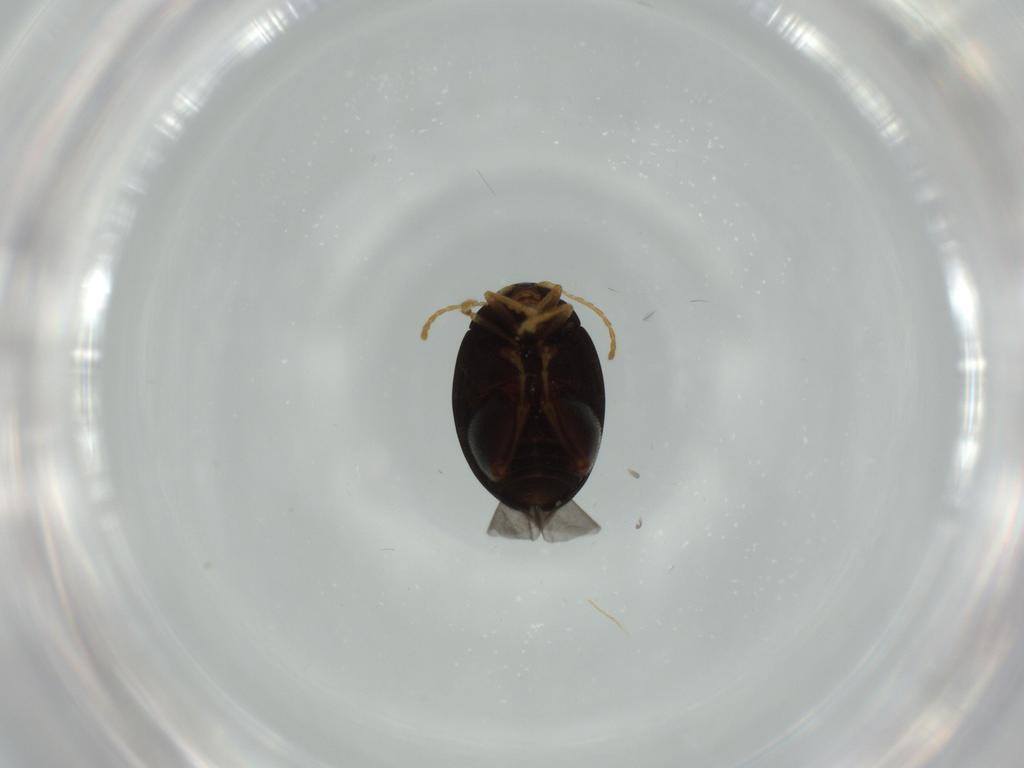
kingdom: Animalia
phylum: Arthropoda
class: Insecta
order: Coleoptera
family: Chrysomelidae
